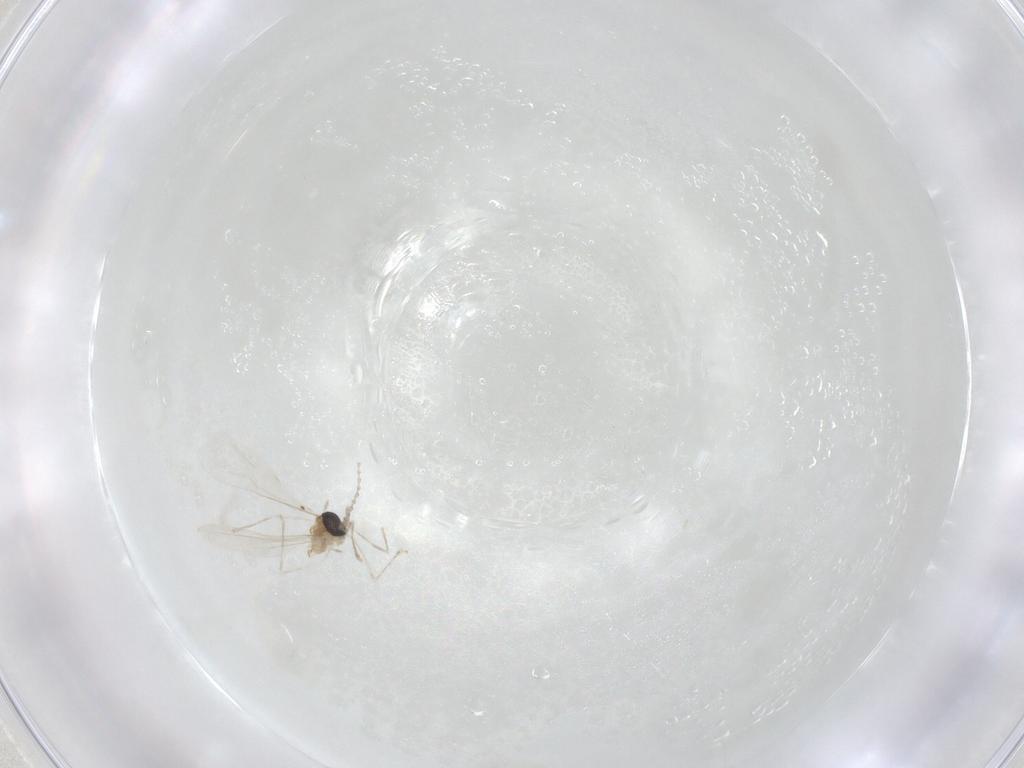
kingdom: Animalia
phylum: Arthropoda
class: Insecta
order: Diptera
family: Cecidomyiidae
